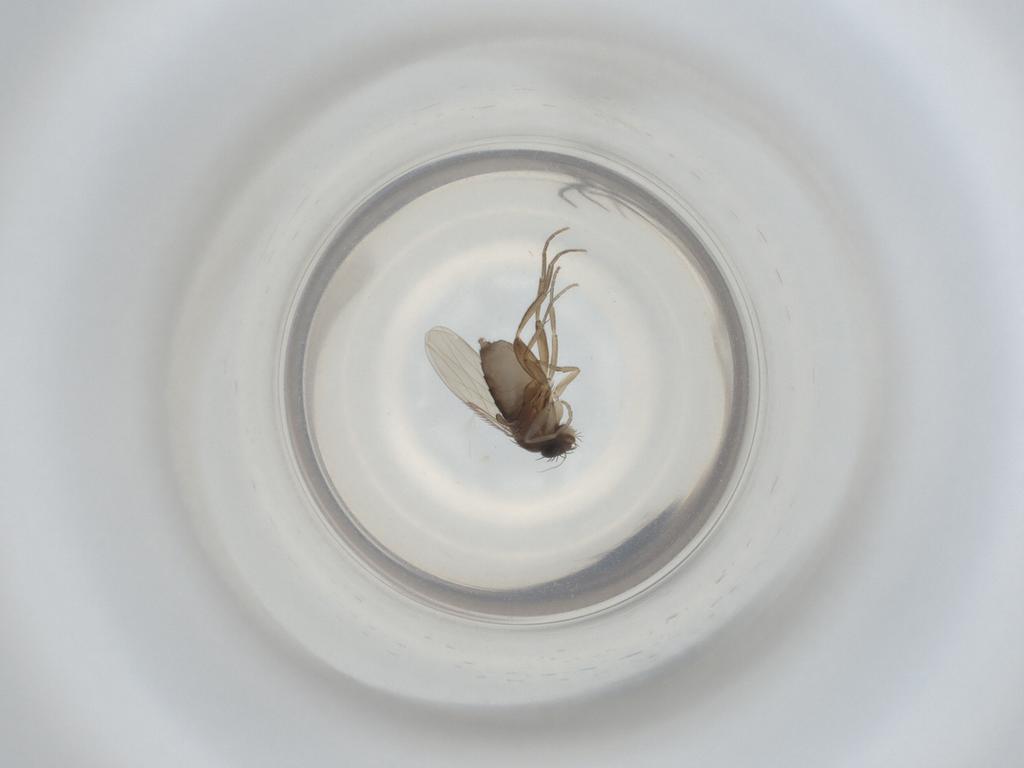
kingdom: Animalia
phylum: Arthropoda
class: Insecta
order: Diptera
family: Phoridae
